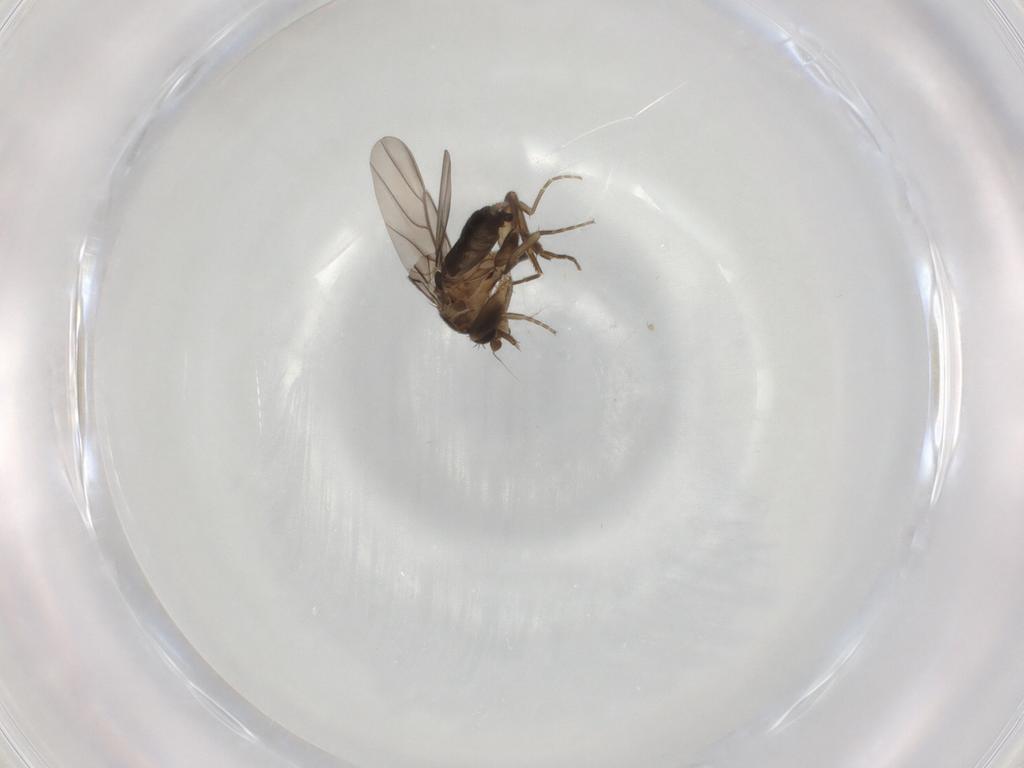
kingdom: Animalia
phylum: Arthropoda
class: Insecta
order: Diptera
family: Phoridae
